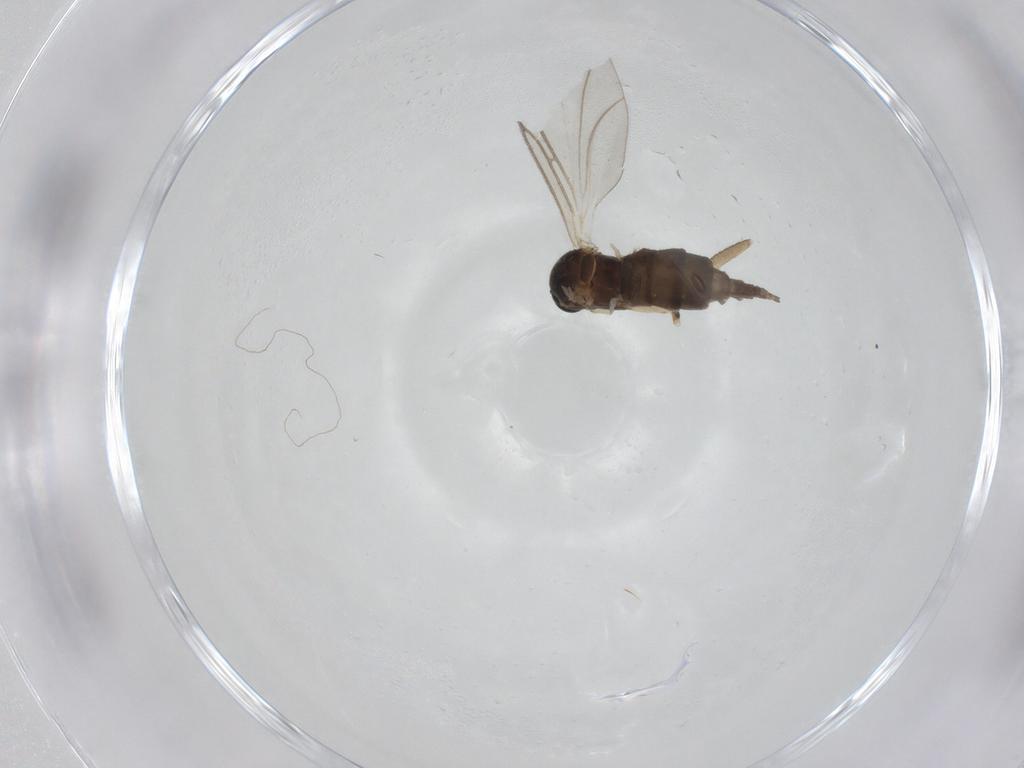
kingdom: Animalia
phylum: Arthropoda
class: Insecta
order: Diptera
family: Sciaridae
